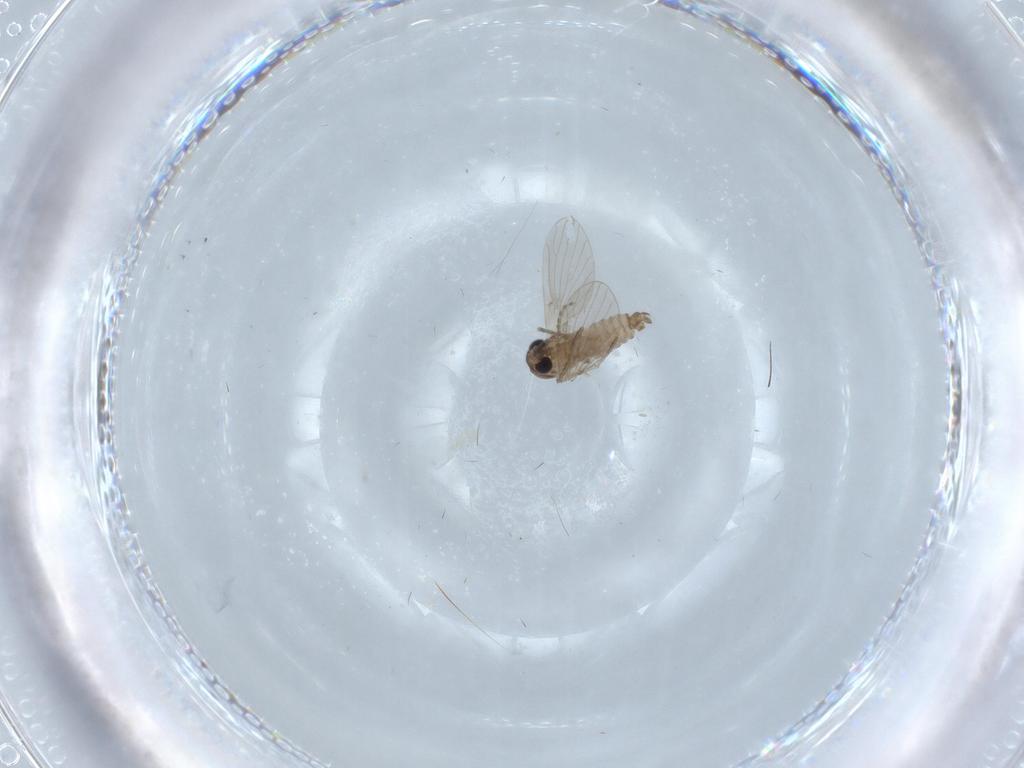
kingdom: Animalia
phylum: Arthropoda
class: Insecta
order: Diptera
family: Psychodidae
